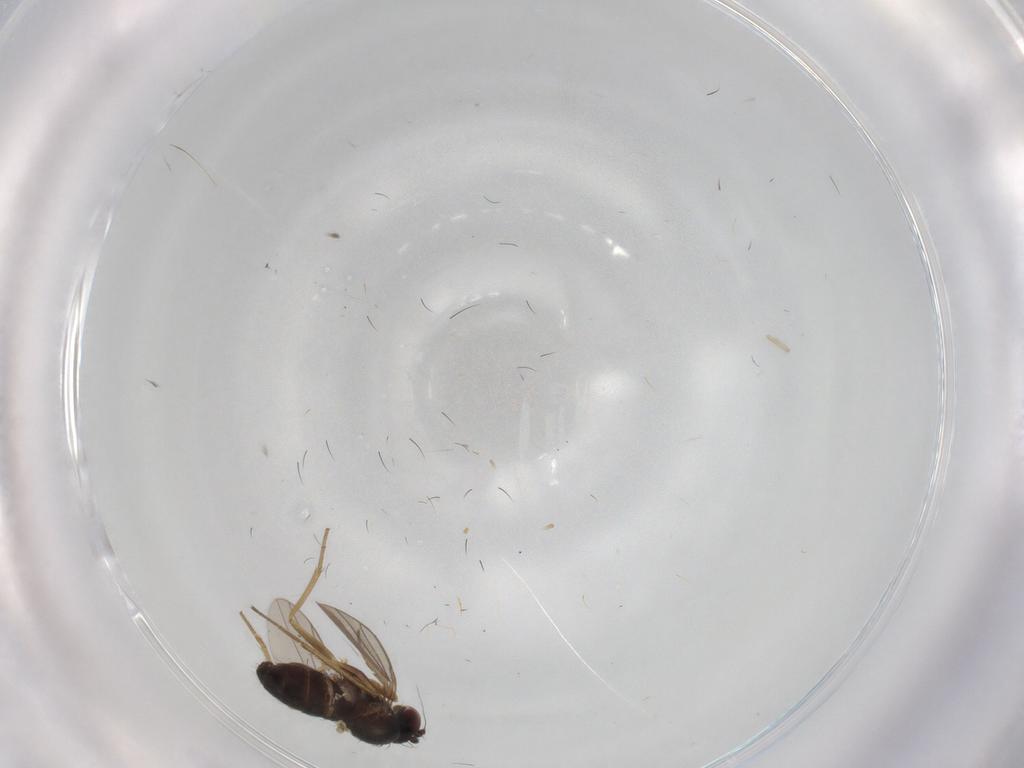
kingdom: Animalia
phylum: Arthropoda
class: Insecta
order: Diptera
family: Dolichopodidae
